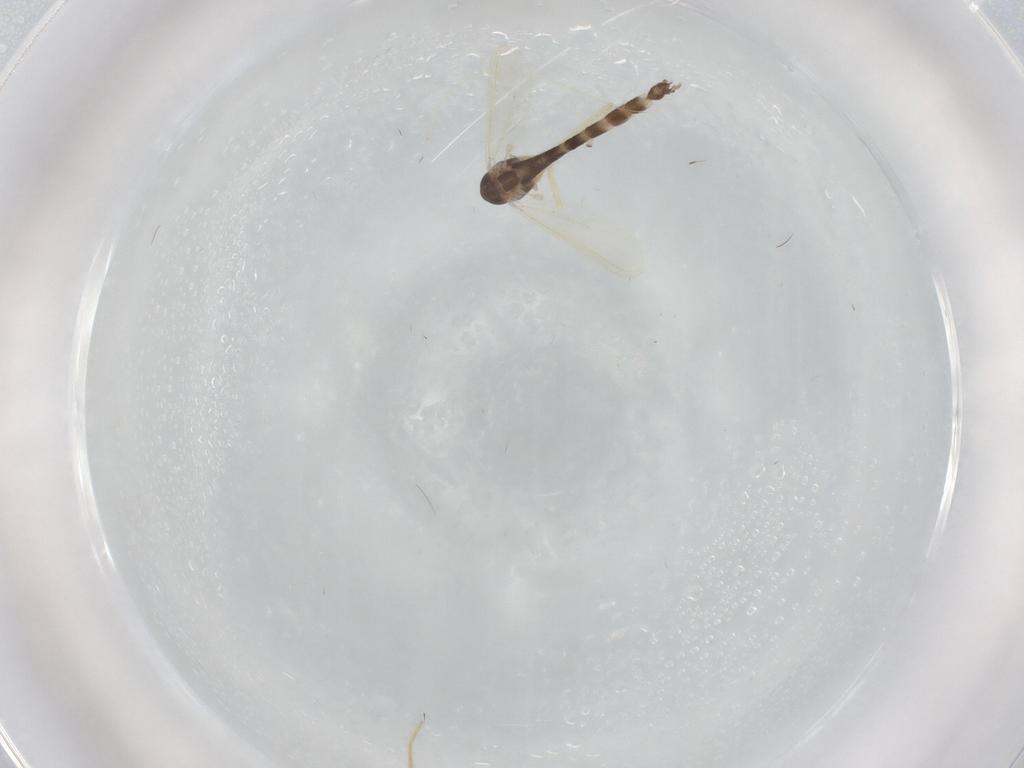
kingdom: Animalia
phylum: Arthropoda
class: Insecta
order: Diptera
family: Chironomidae
